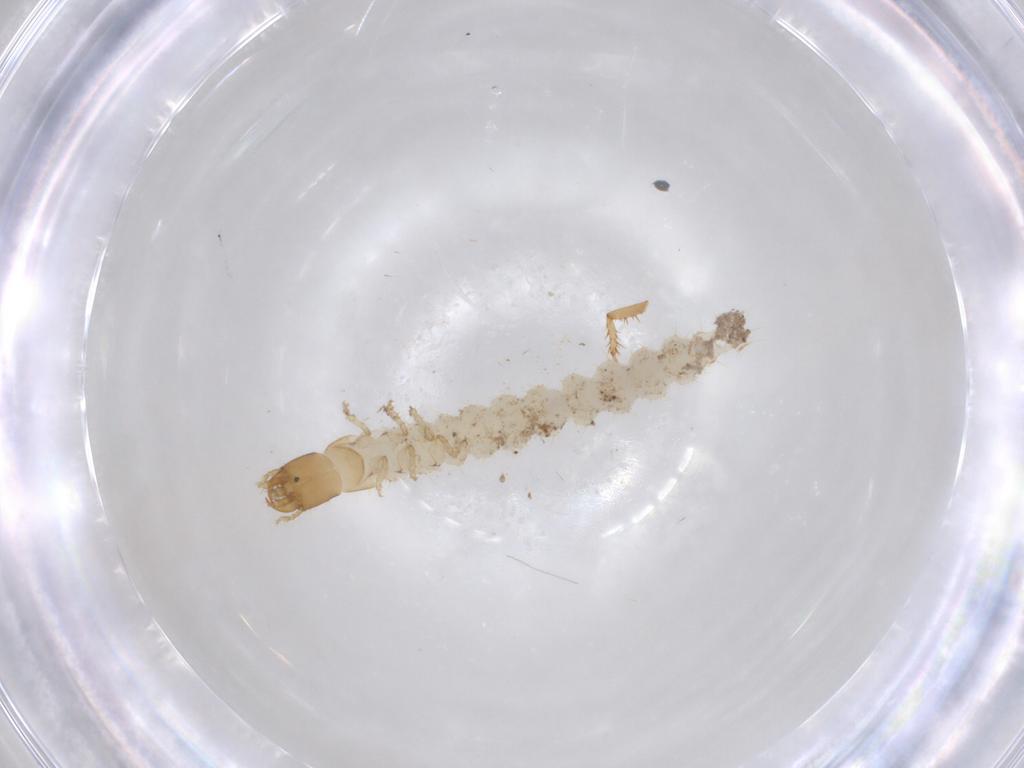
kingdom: Animalia
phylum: Arthropoda
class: Insecta
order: Coleoptera
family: Carabidae
